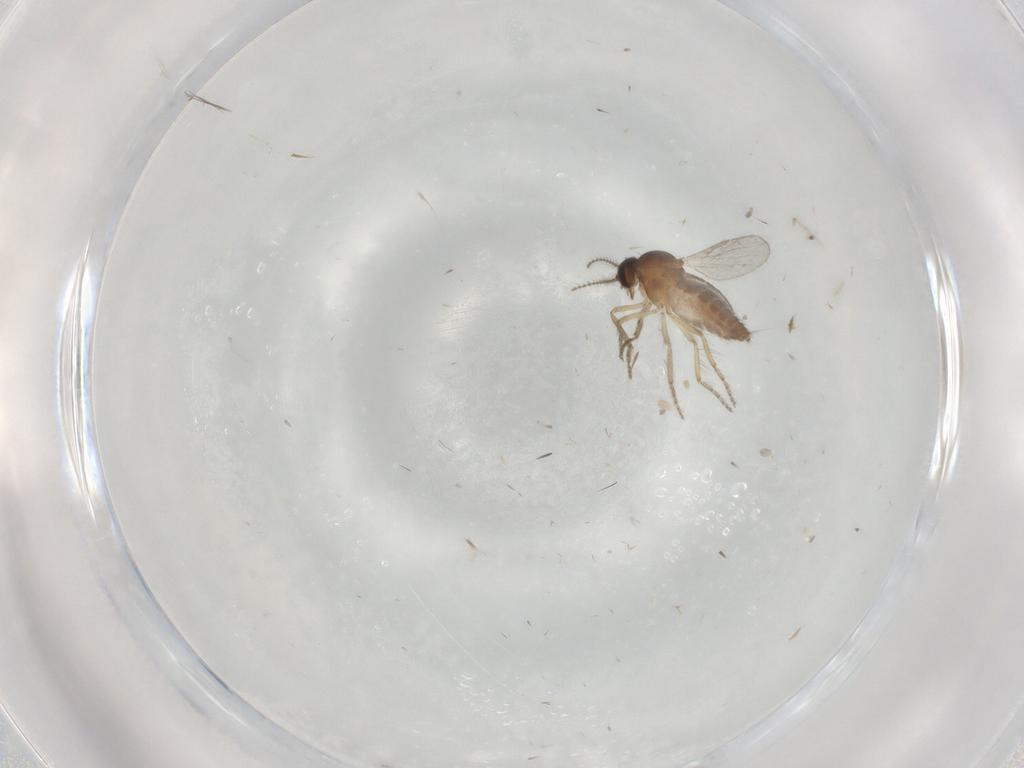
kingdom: Animalia
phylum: Arthropoda
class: Insecta
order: Diptera
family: Ceratopogonidae
